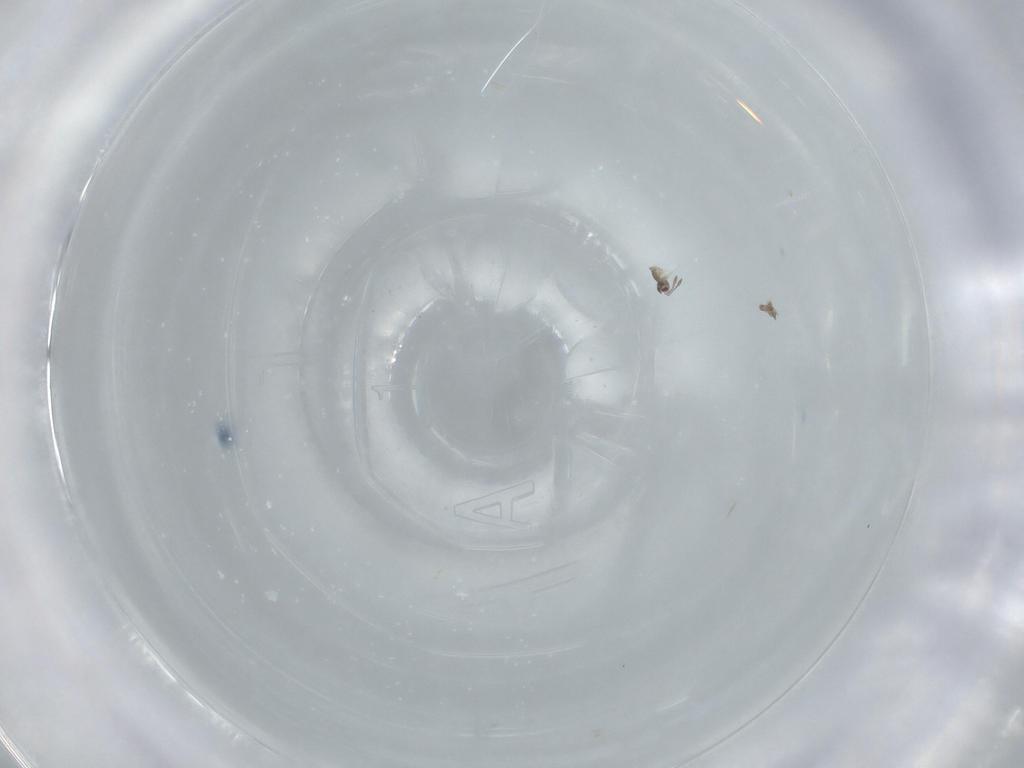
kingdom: Animalia
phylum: Arthropoda
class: Insecta
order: Hymenoptera
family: Mymaridae
